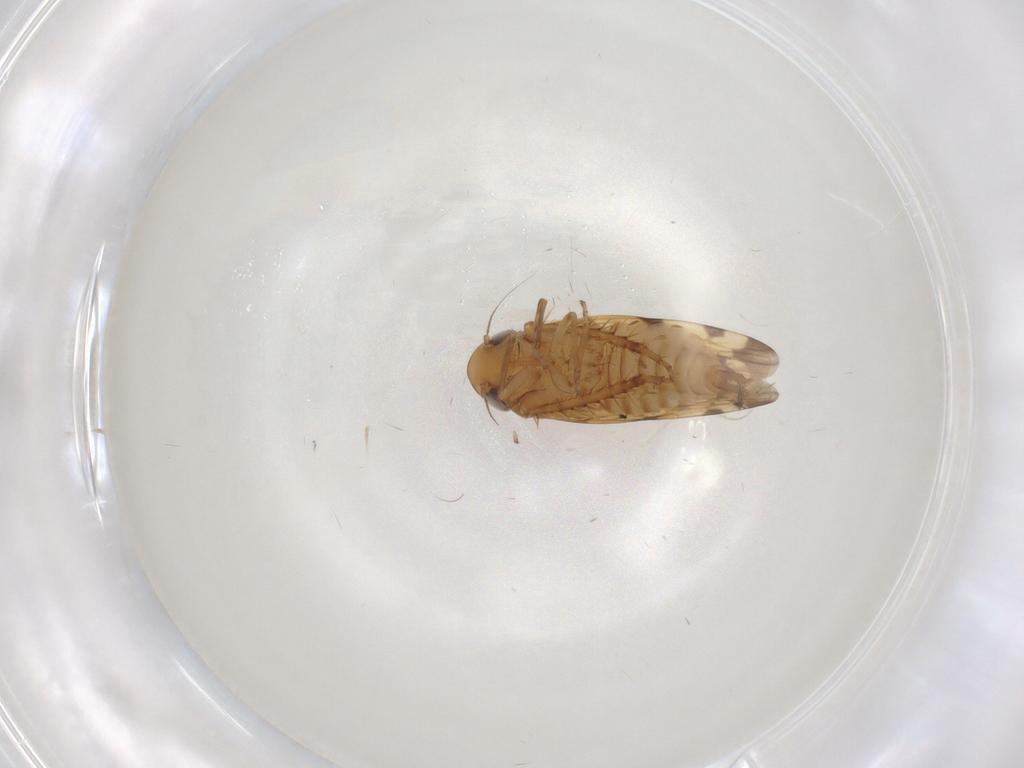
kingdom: Animalia
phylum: Arthropoda
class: Insecta
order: Hemiptera
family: Cicadellidae
